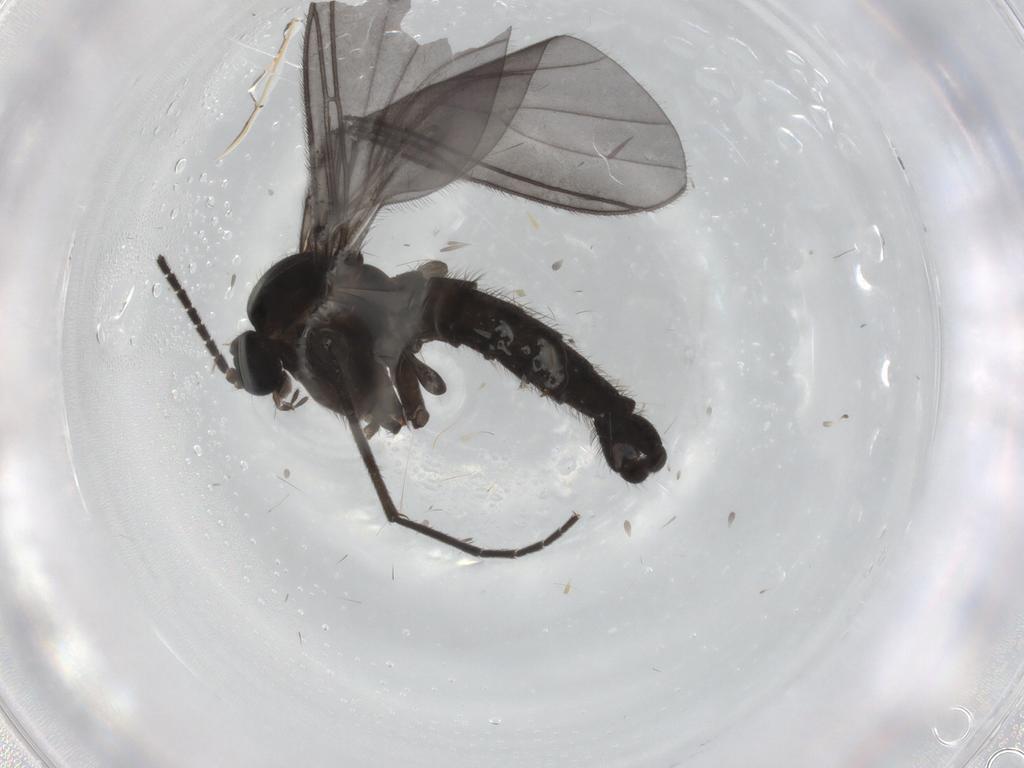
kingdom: Animalia
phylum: Arthropoda
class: Insecta
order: Diptera
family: Sciaridae
